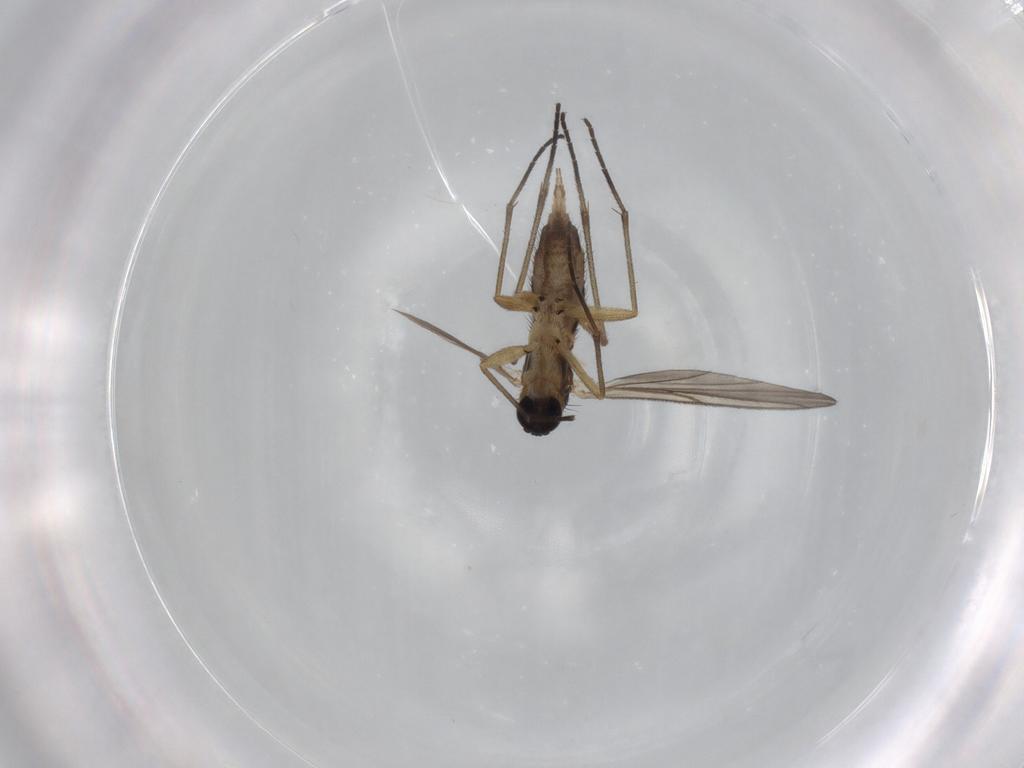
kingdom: Animalia
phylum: Arthropoda
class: Insecta
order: Diptera
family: Sciaridae
